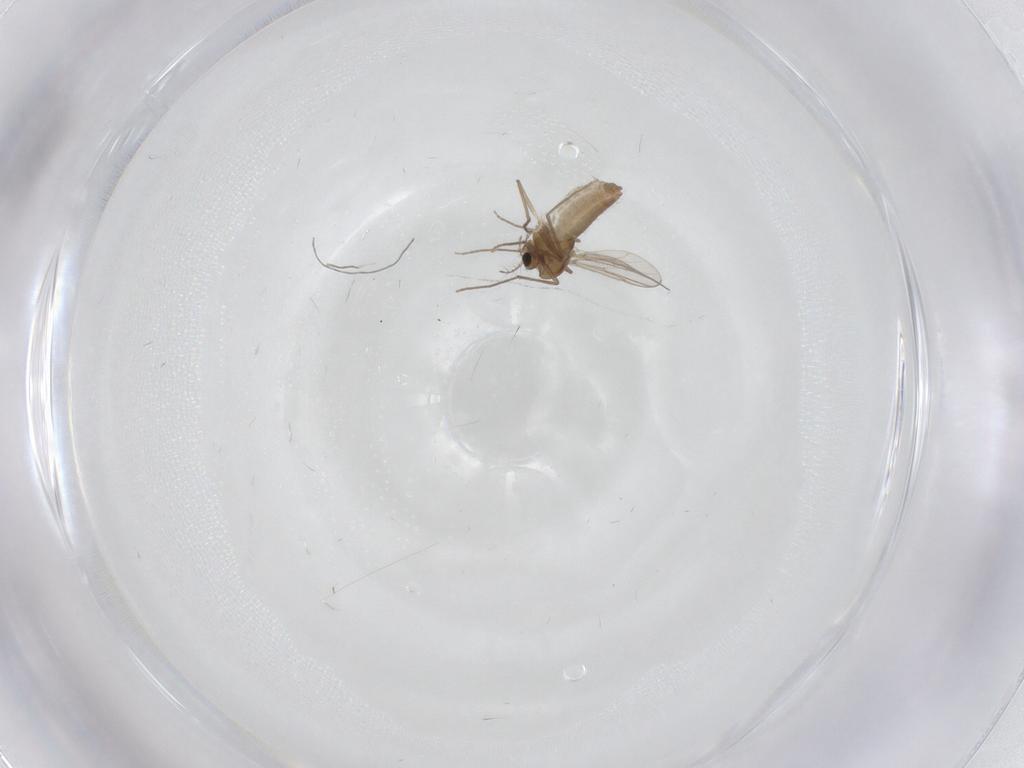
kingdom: Animalia
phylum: Arthropoda
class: Insecta
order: Diptera
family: Chironomidae
